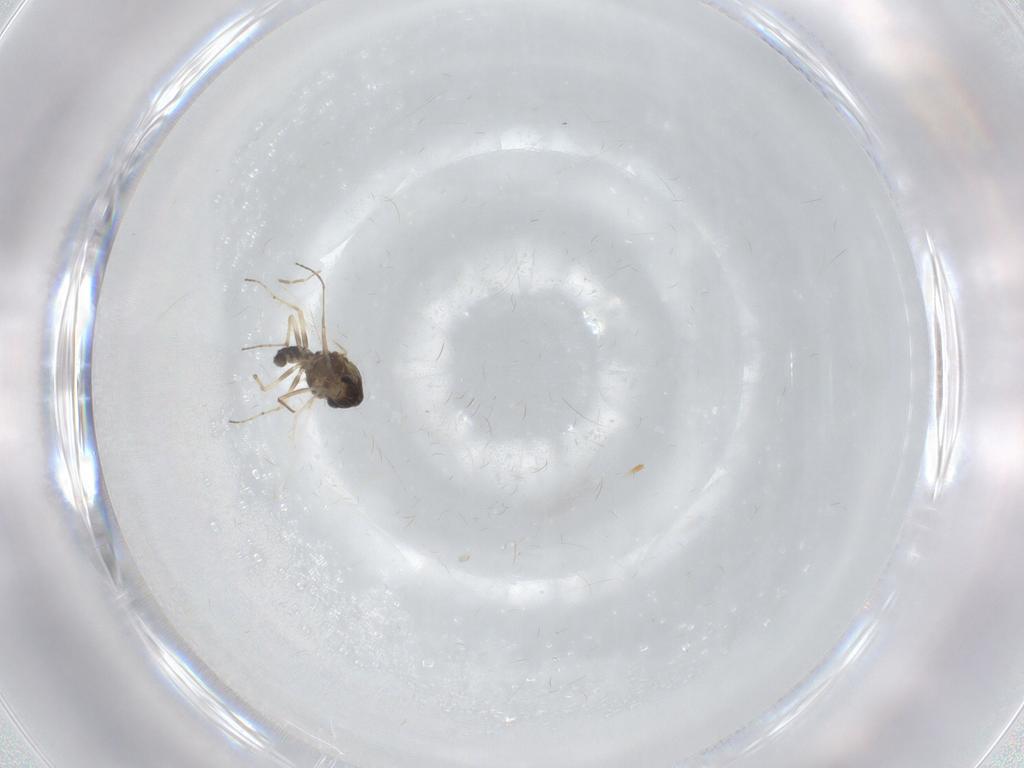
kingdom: Animalia
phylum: Arthropoda
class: Insecta
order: Diptera
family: Chironomidae
